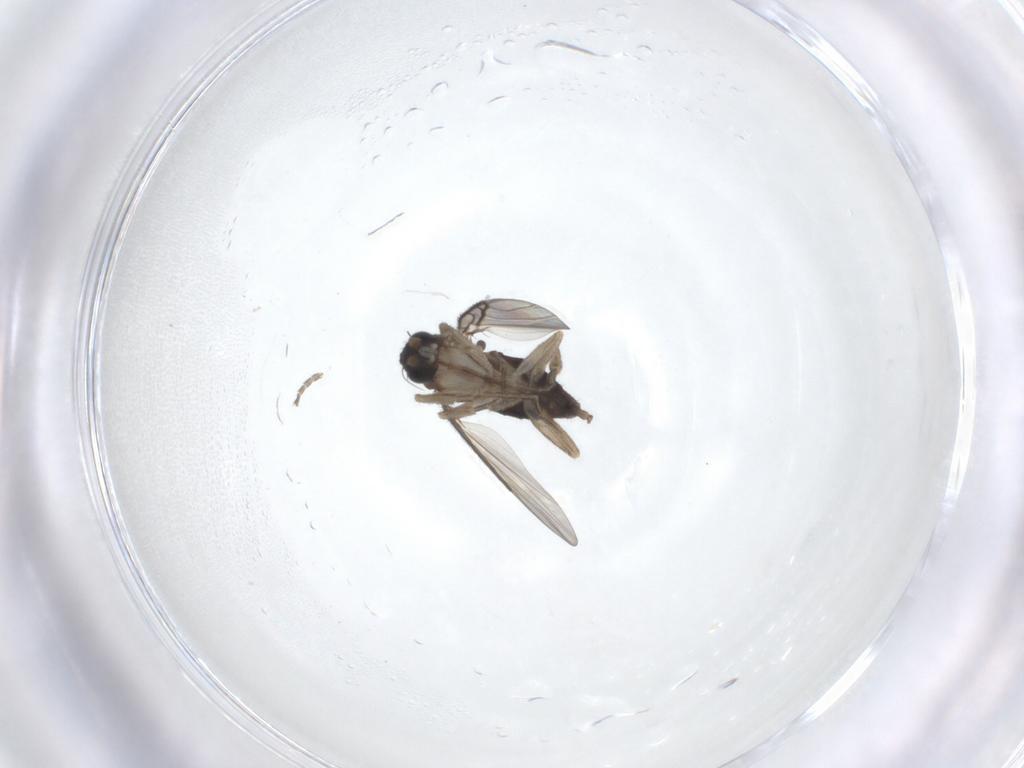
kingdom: Animalia
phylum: Arthropoda
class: Insecta
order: Diptera
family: Phoridae
